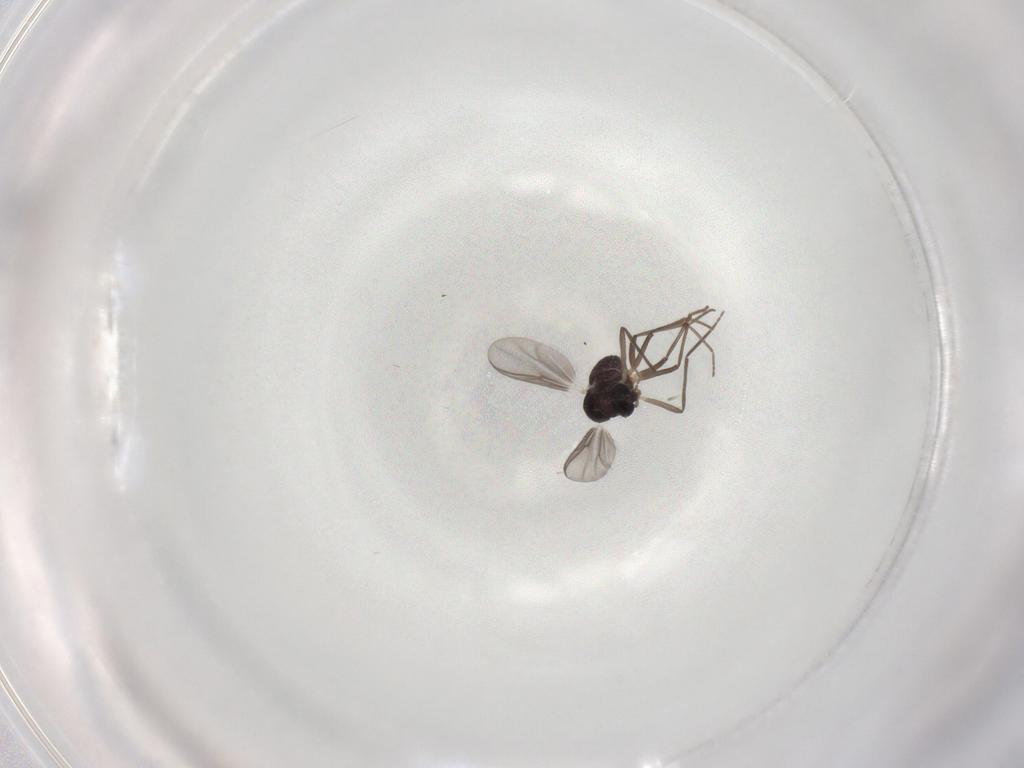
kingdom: Animalia
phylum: Arthropoda
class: Insecta
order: Diptera
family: Chironomidae
